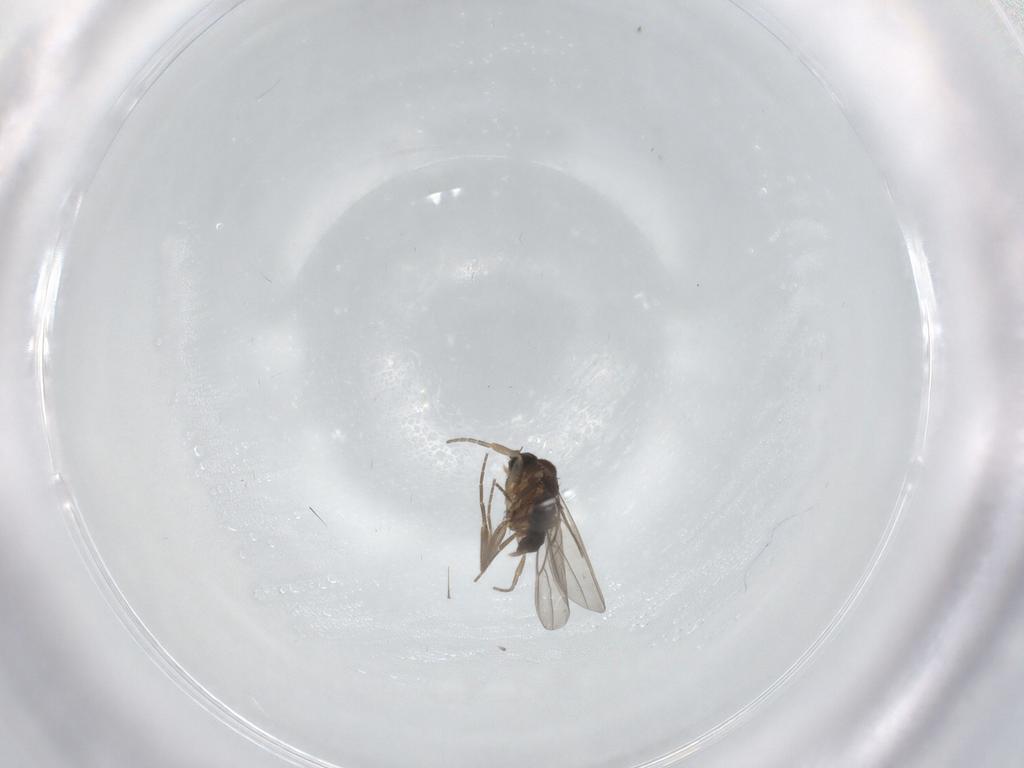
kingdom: Animalia
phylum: Arthropoda
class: Insecta
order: Diptera
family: Phoridae
